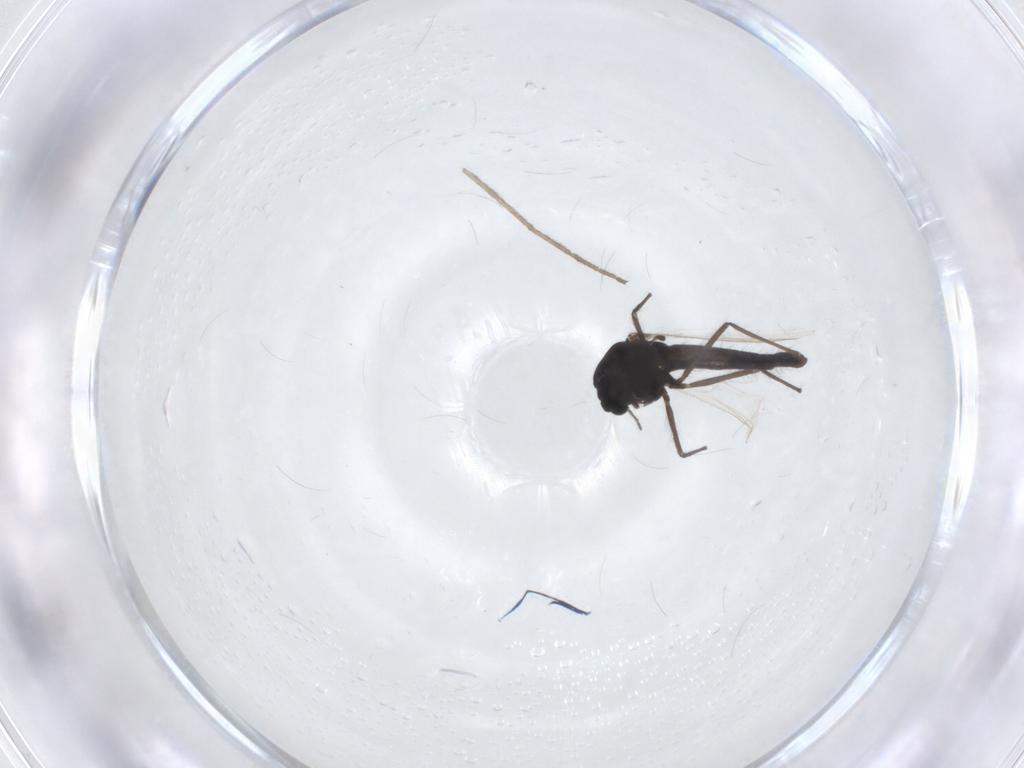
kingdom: Animalia
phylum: Arthropoda
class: Insecta
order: Diptera
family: Cecidomyiidae
